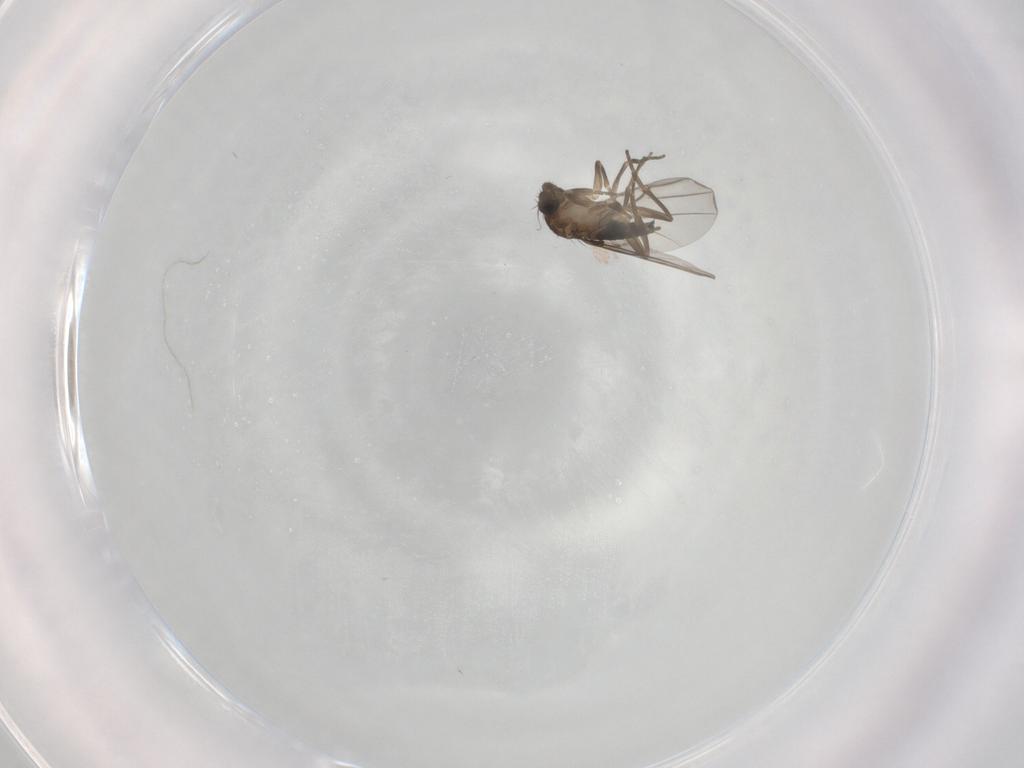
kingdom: Animalia
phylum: Arthropoda
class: Insecta
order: Diptera
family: Phoridae
